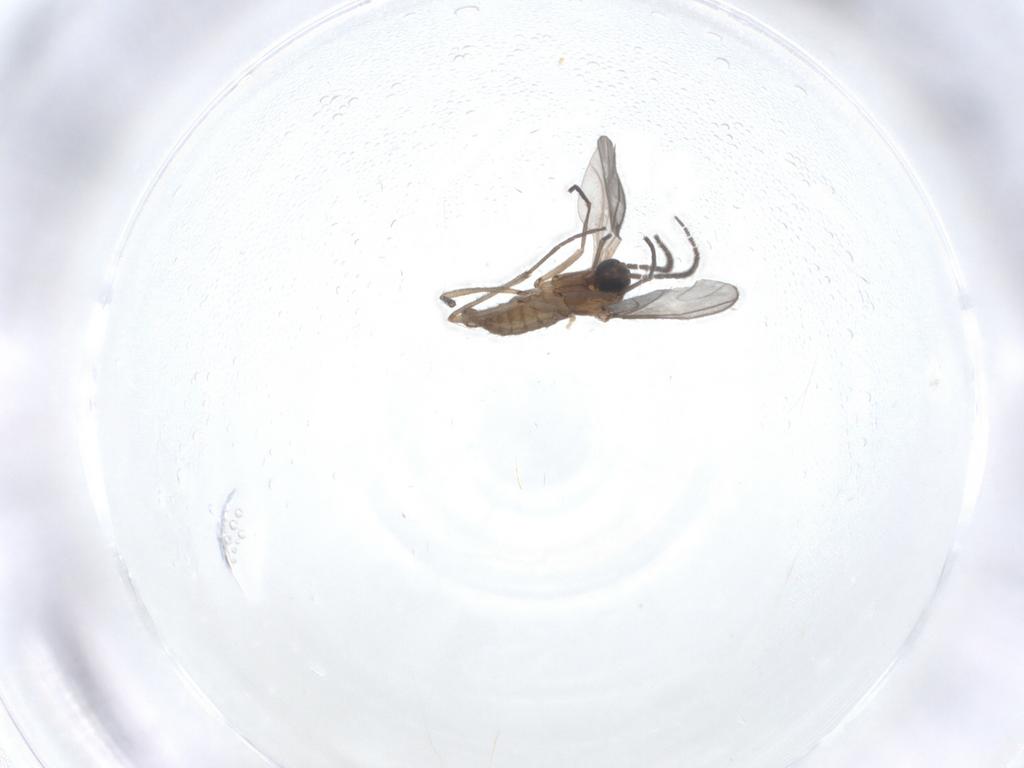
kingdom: Animalia
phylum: Arthropoda
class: Insecta
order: Diptera
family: Sciaridae
